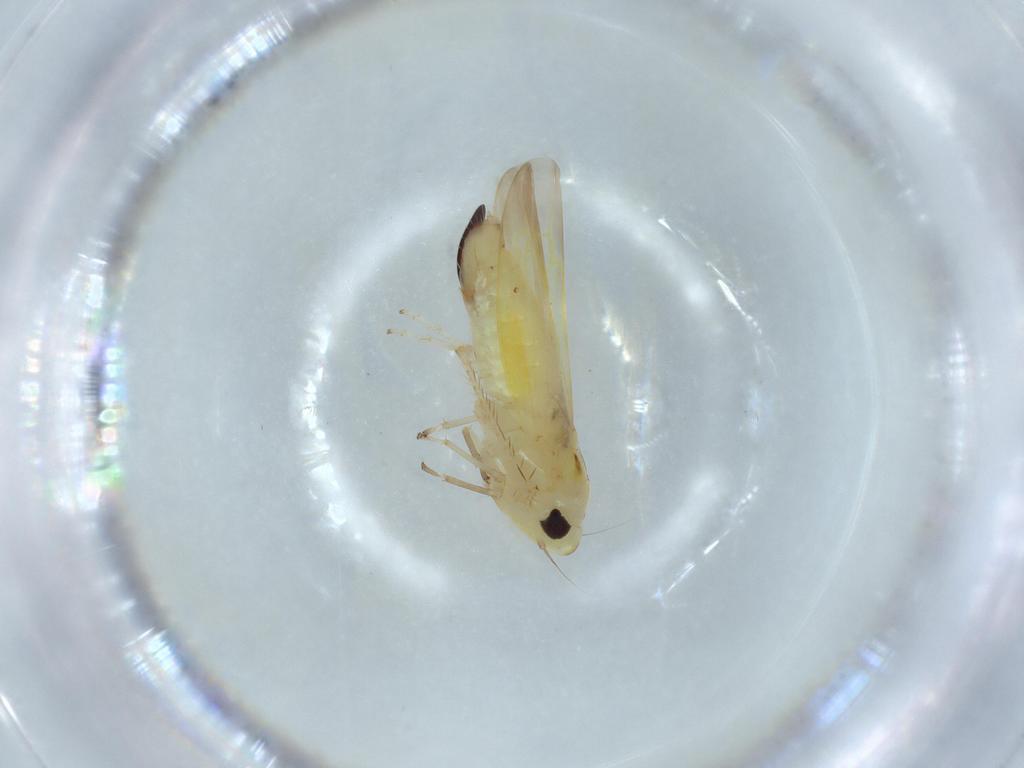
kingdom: Animalia
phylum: Arthropoda
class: Insecta
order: Hemiptera
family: Cicadellidae
